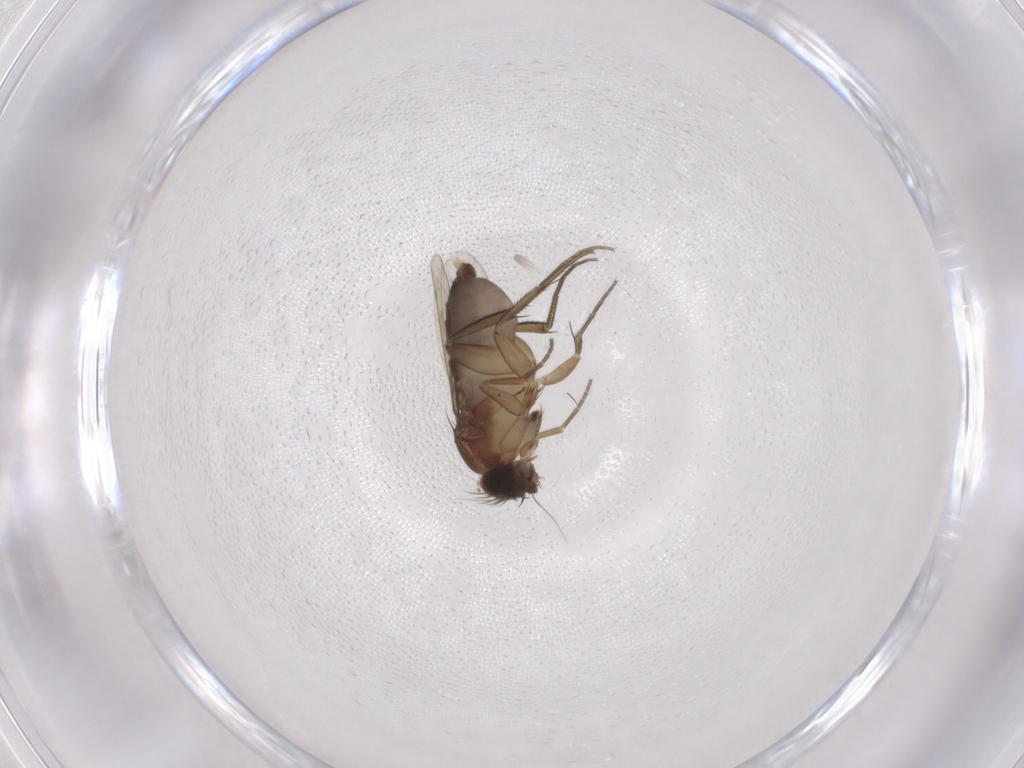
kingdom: Animalia
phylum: Arthropoda
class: Insecta
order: Diptera
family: Phoridae
